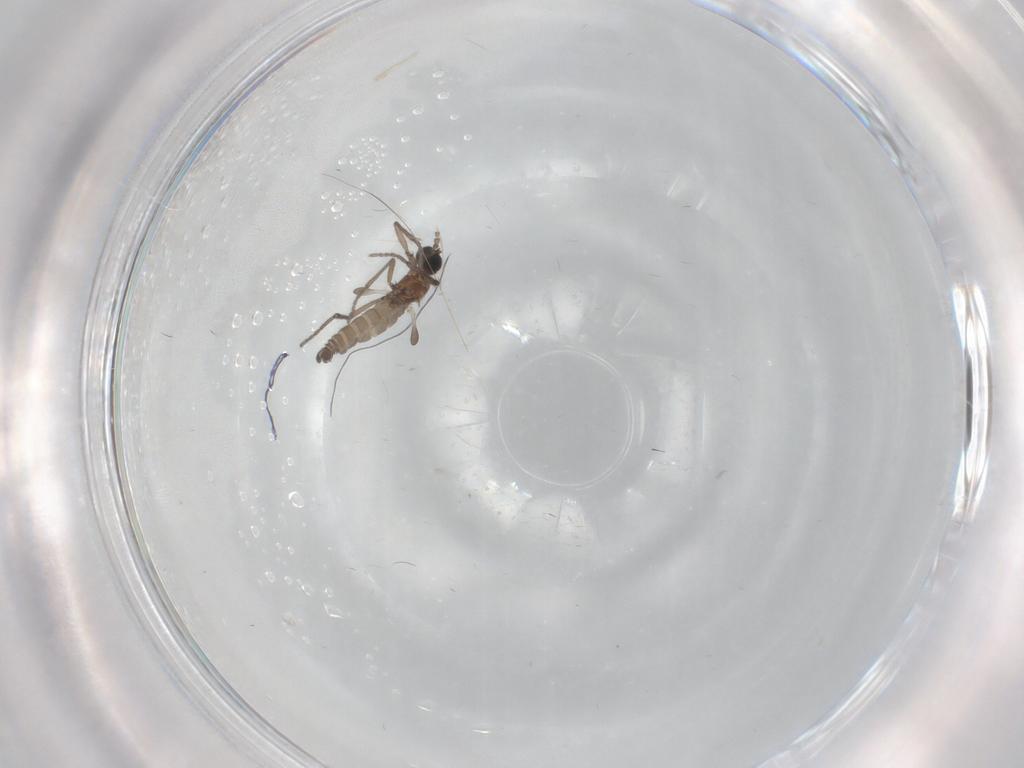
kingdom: Animalia
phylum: Arthropoda
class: Insecta
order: Diptera
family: Sciaridae
